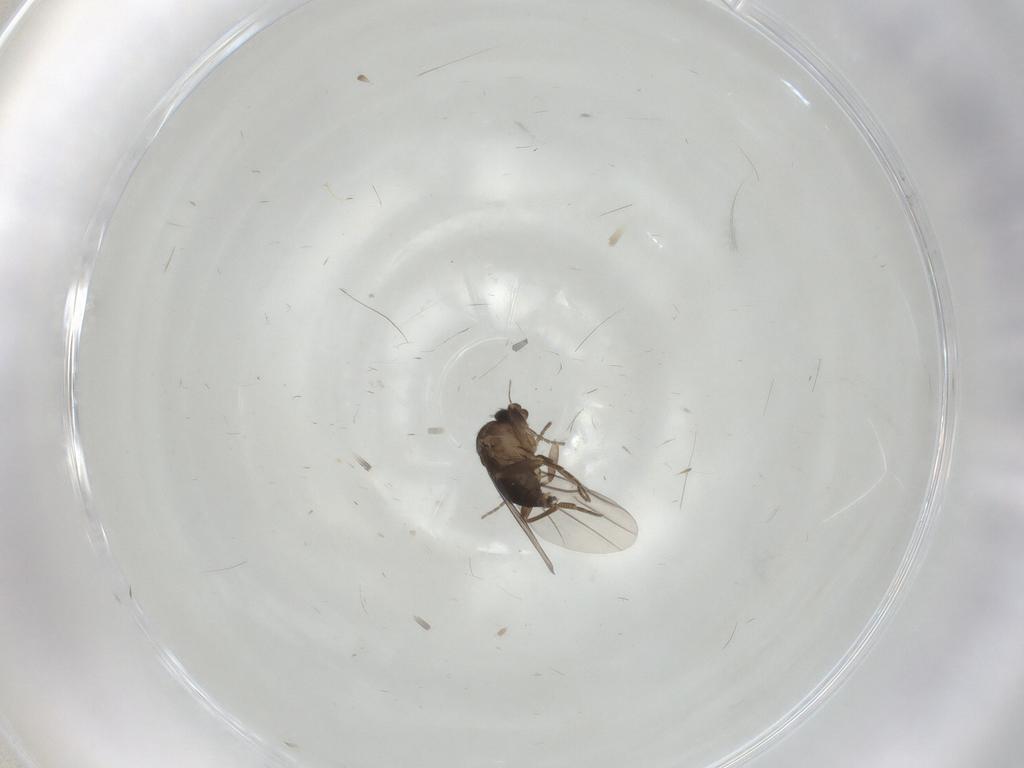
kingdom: Animalia
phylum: Arthropoda
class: Insecta
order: Diptera
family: Phoridae
